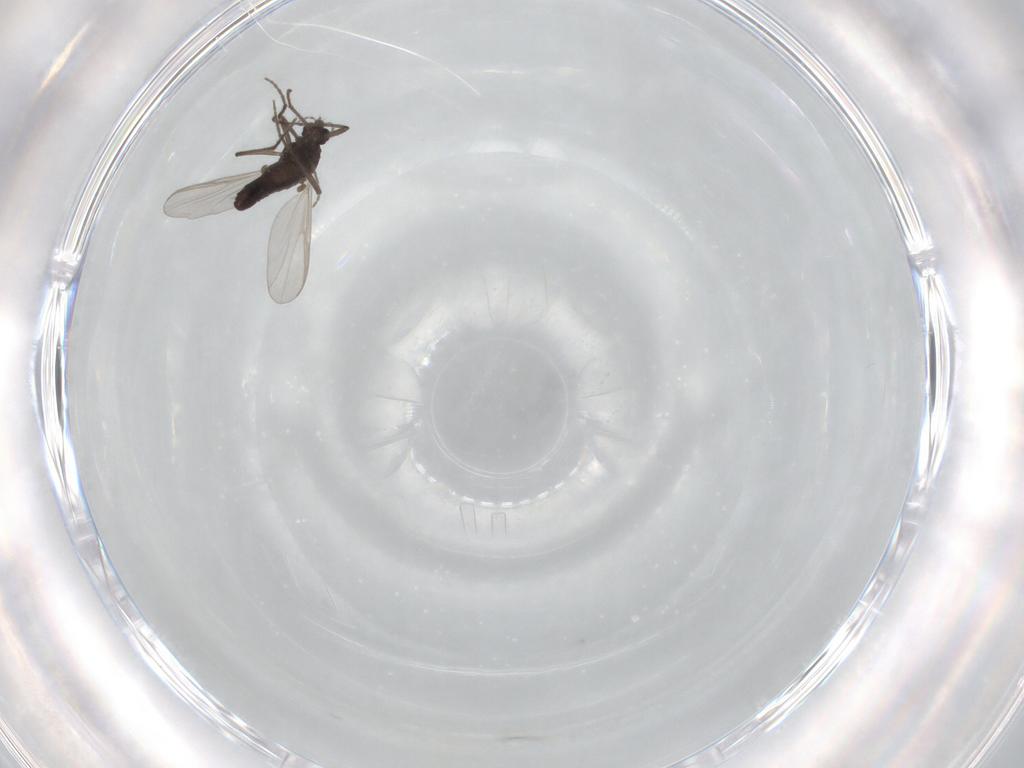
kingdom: Animalia
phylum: Arthropoda
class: Insecta
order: Diptera
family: Chironomidae
